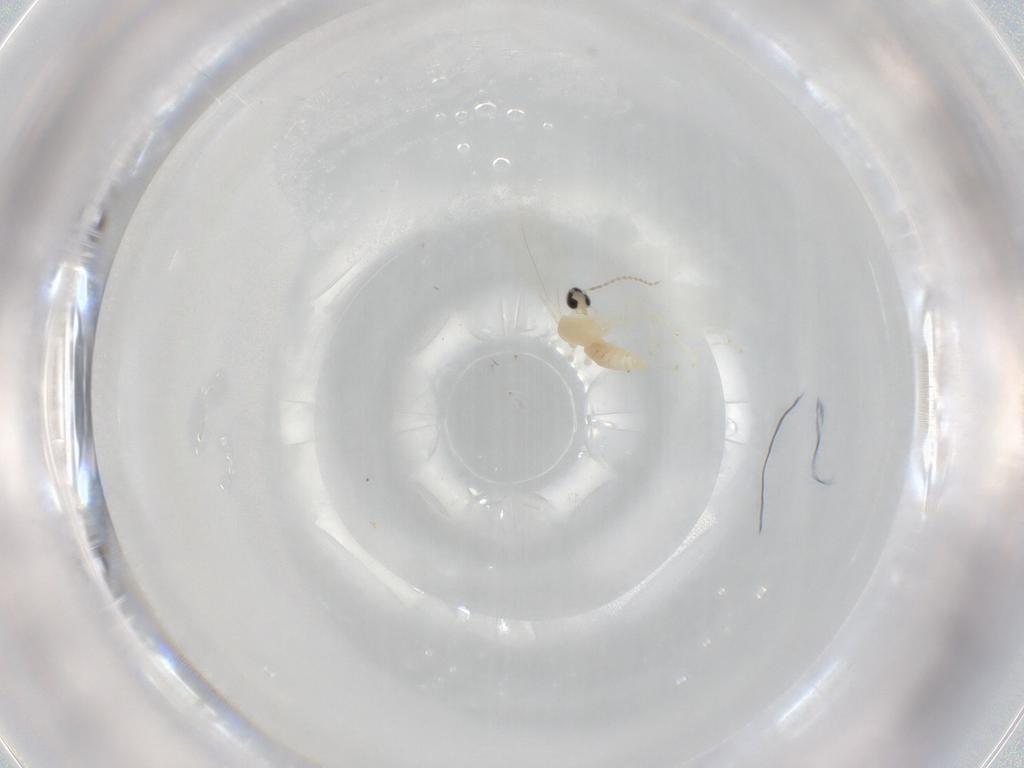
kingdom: Animalia
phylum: Arthropoda
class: Insecta
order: Diptera
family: Cecidomyiidae
